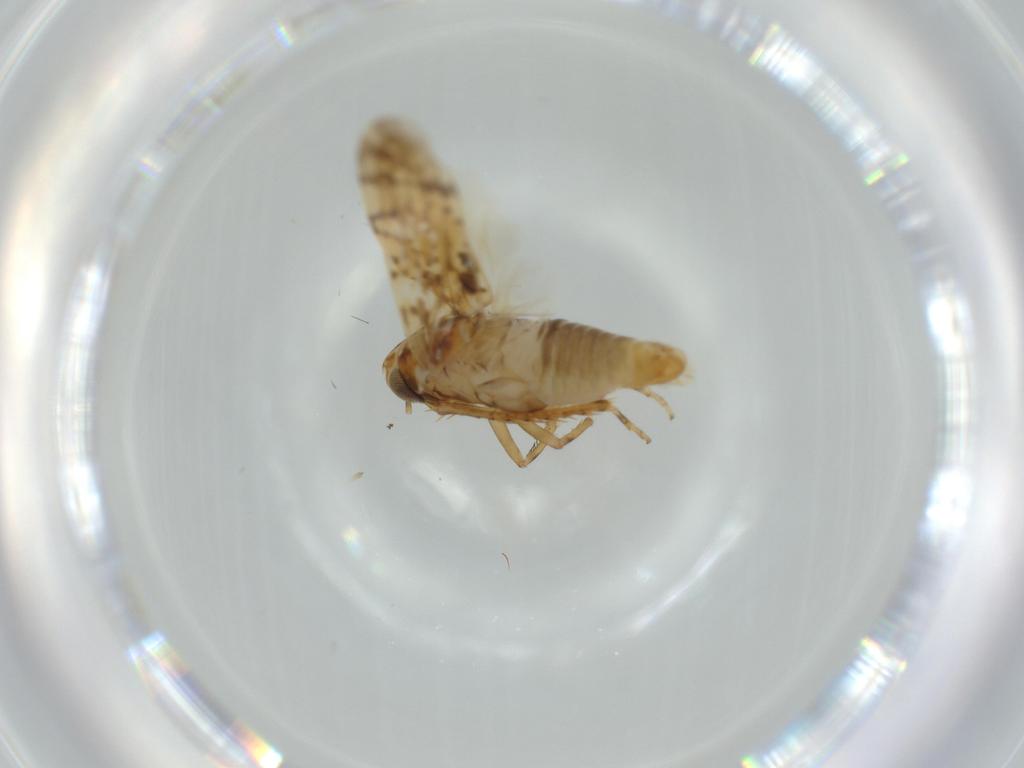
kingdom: Animalia
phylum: Arthropoda
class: Insecta
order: Hemiptera
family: Cicadellidae
